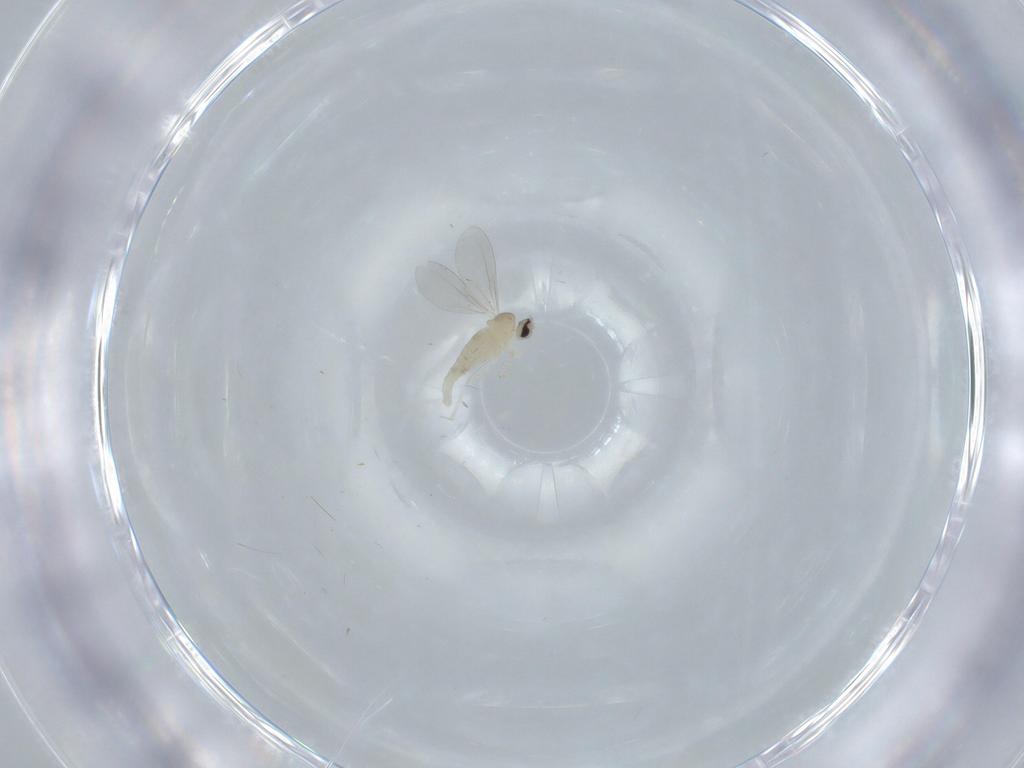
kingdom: Animalia
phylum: Arthropoda
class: Insecta
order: Diptera
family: Cecidomyiidae
